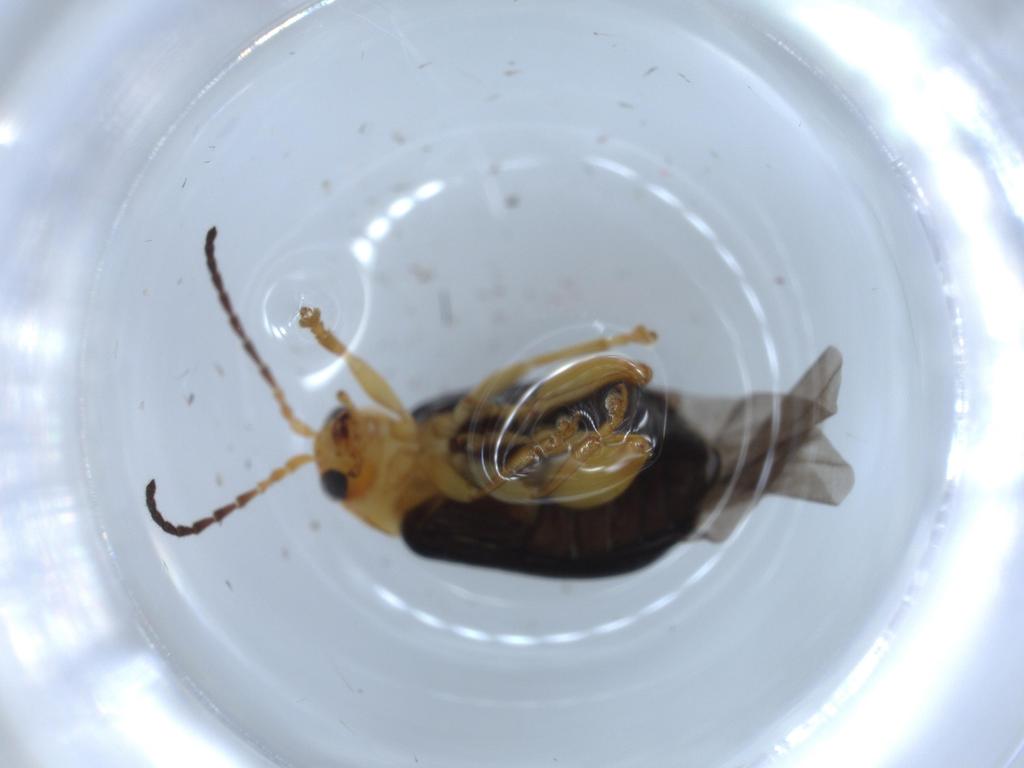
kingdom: Animalia
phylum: Arthropoda
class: Insecta
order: Coleoptera
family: Chrysomelidae
